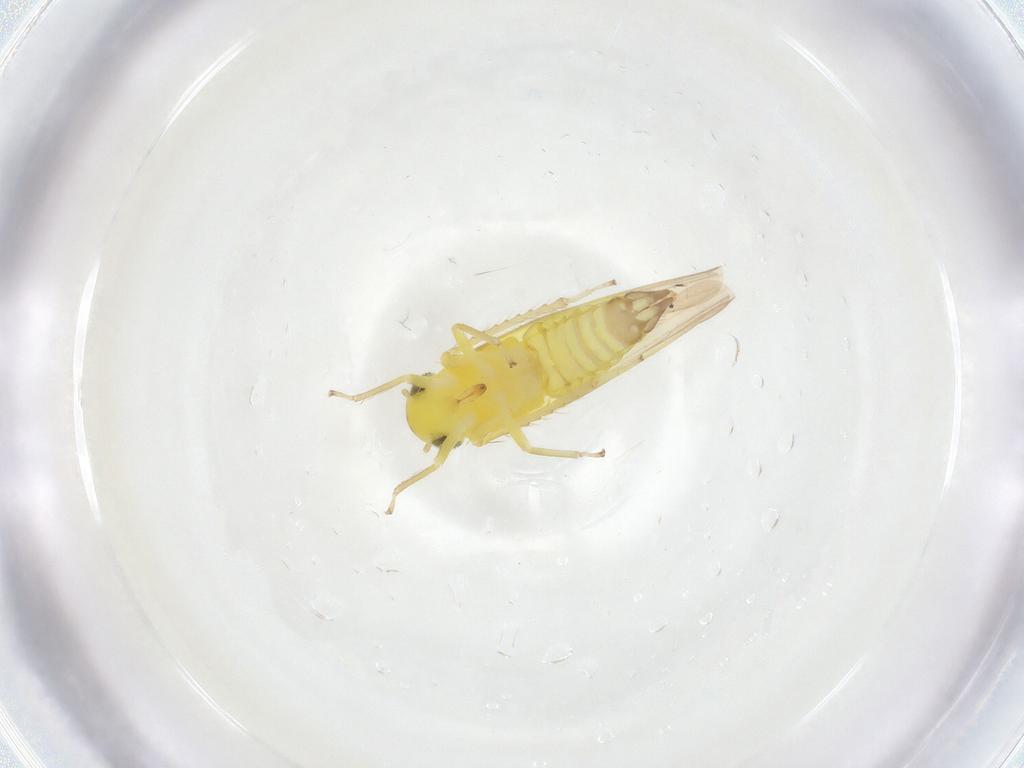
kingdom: Animalia
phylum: Arthropoda
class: Insecta
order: Hemiptera
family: Cicadellidae
